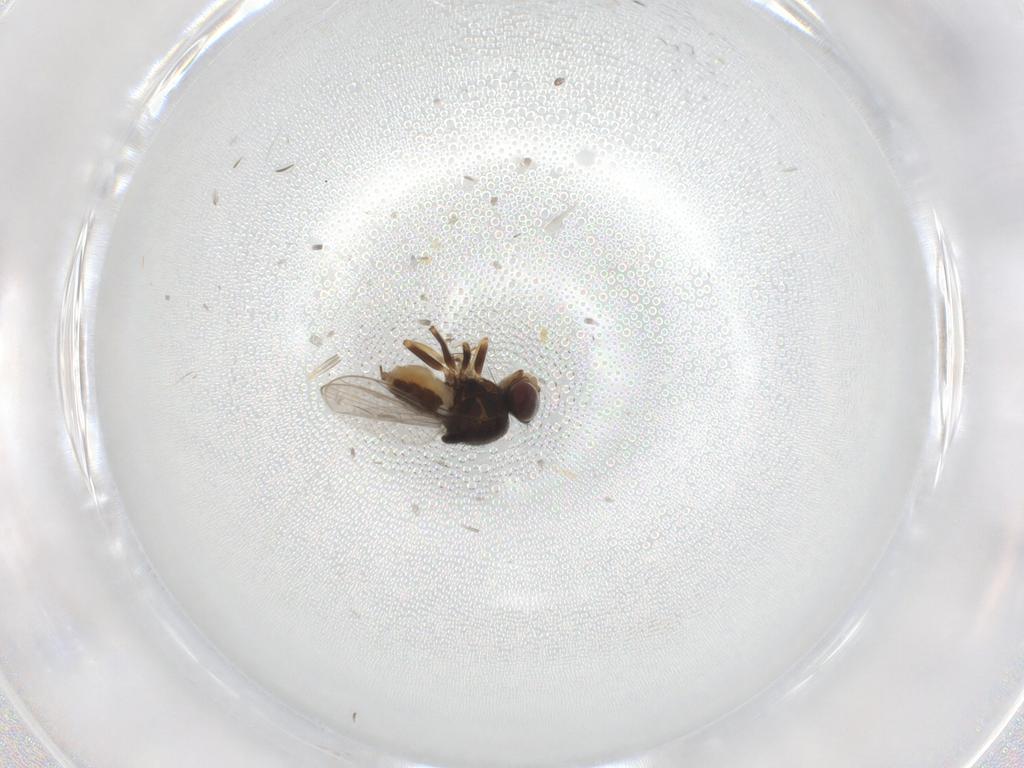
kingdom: Animalia
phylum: Arthropoda
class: Insecta
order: Diptera
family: Chloropidae
